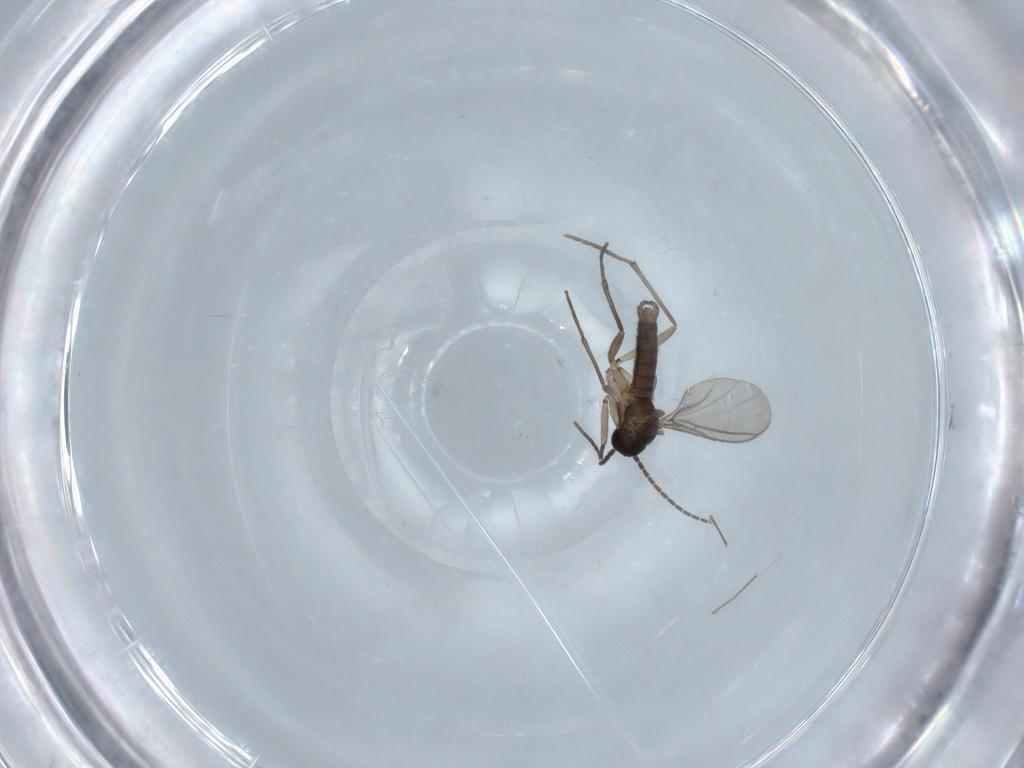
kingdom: Animalia
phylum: Arthropoda
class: Insecta
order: Diptera
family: Sciaridae
